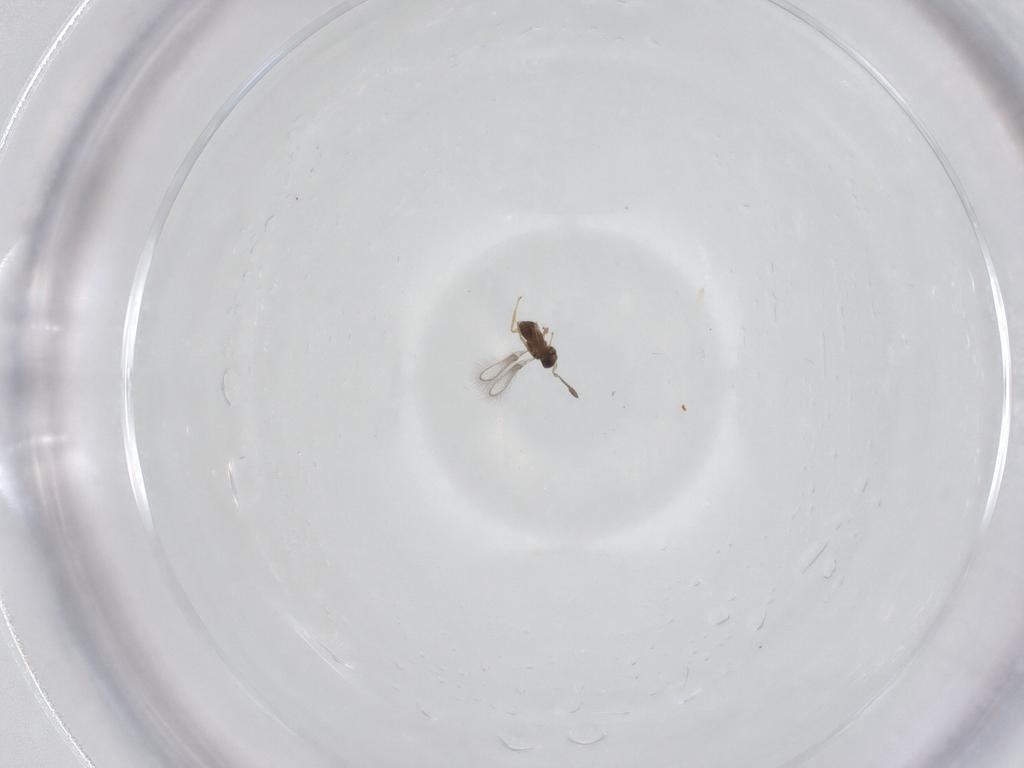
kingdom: Animalia
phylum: Arthropoda
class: Insecta
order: Hymenoptera
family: Mymaridae
